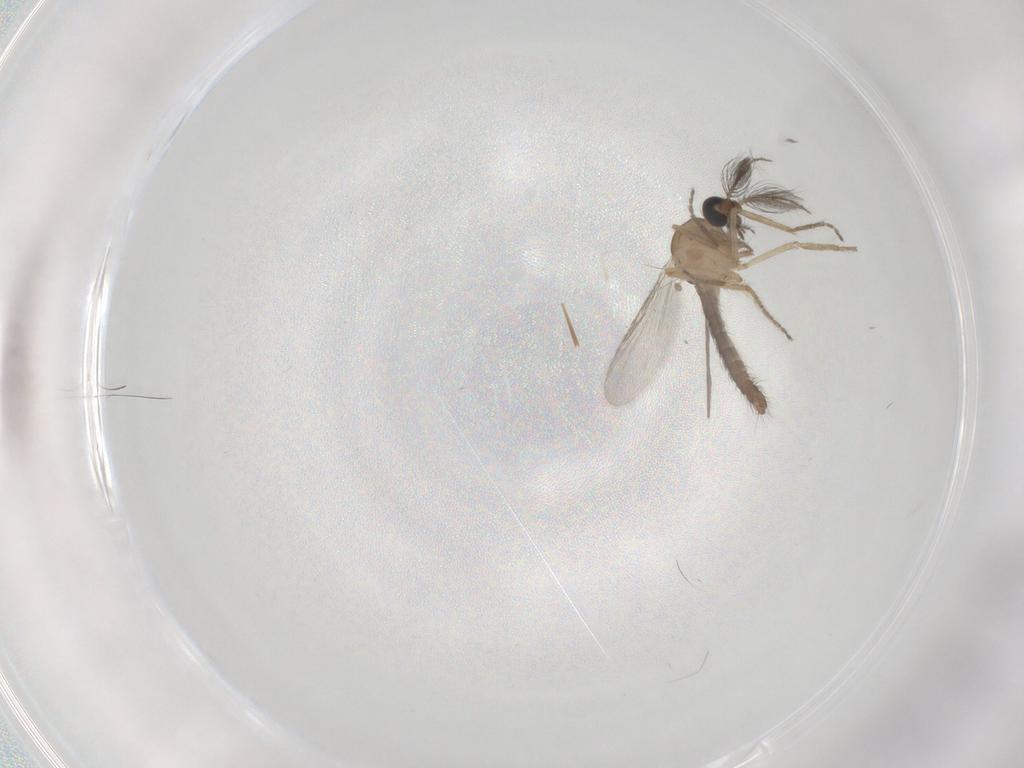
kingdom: Animalia
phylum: Arthropoda
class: Insecta
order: Diptera
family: Ceratopogonidae
